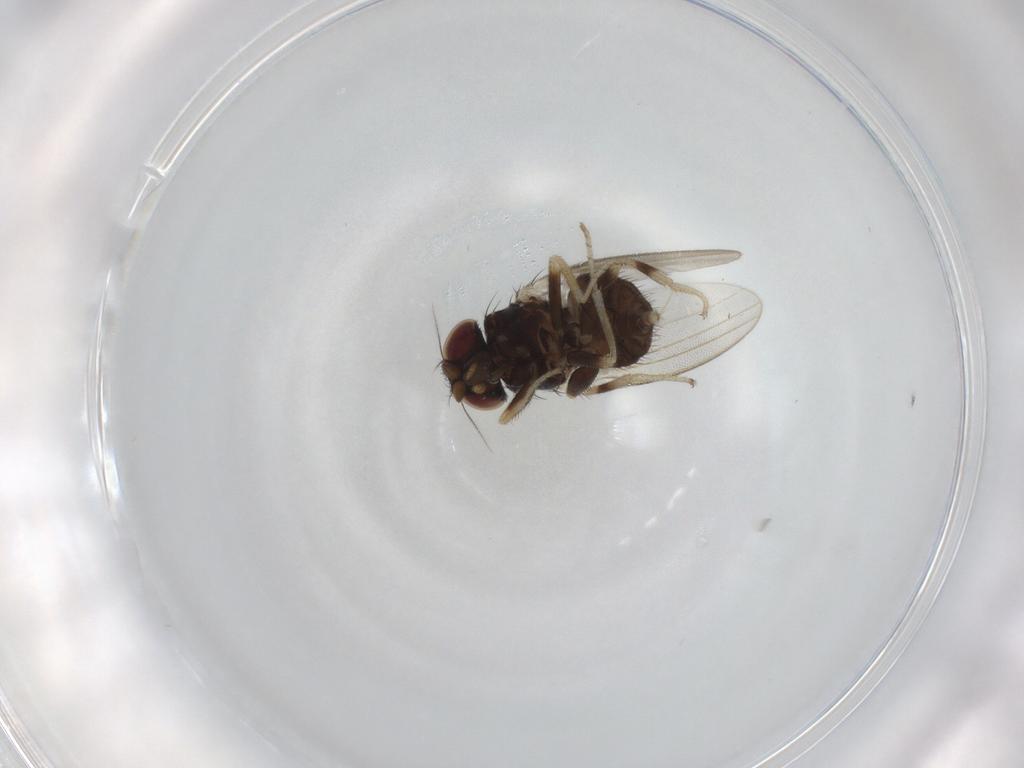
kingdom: Animalia
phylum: Arthropoda
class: Insecta
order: Diptera
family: Milichiidae
